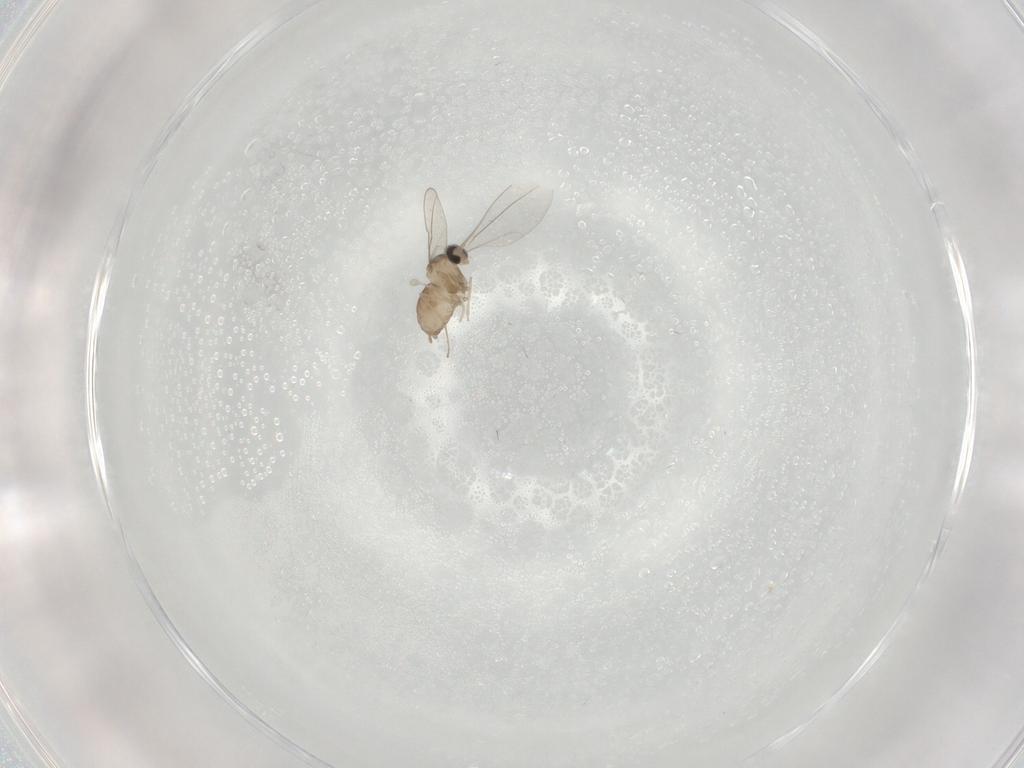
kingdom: Animalia
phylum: Arthropoda
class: Insecta
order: Diptera
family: Cecidomyiidae
